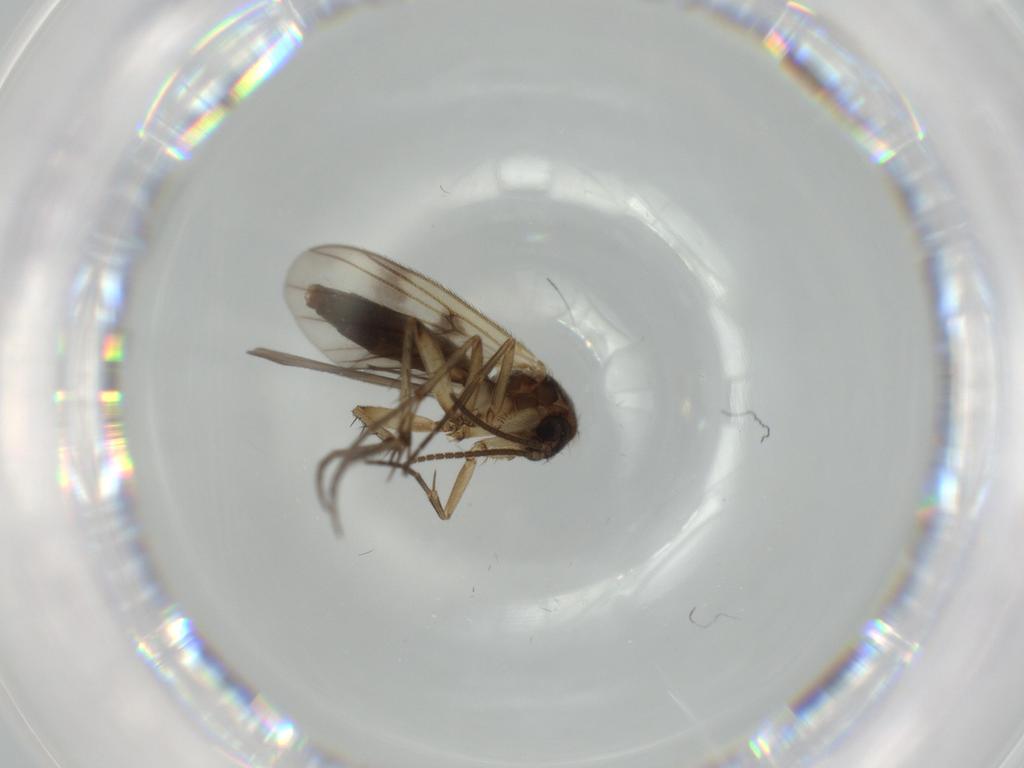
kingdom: Animalia
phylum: Arthropoda
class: Insecta
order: Diptera
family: Mycetophilidae
